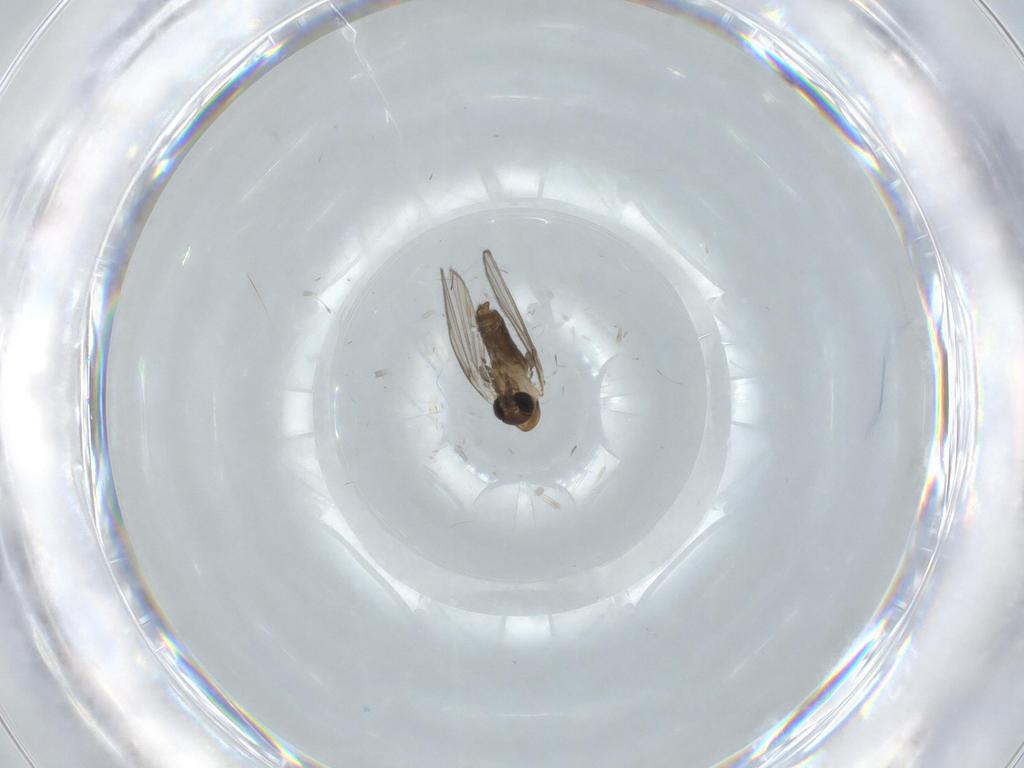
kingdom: Animalia
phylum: Arthropoda
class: Insecta
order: Diptera
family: Psychodidae
